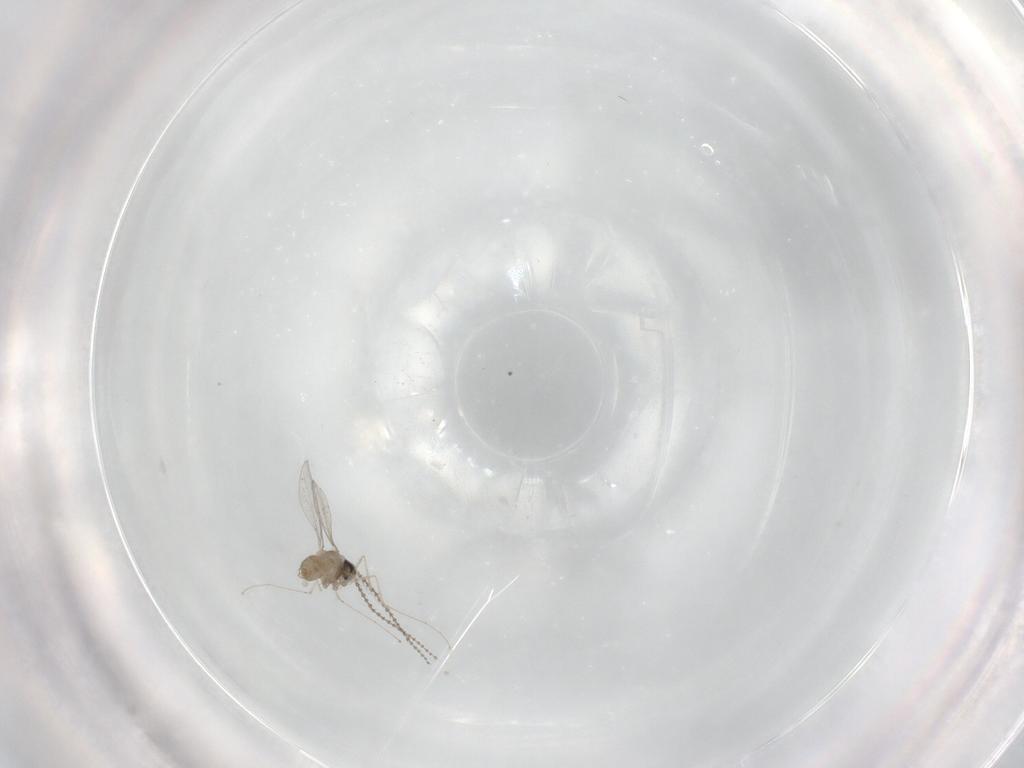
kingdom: Animalia
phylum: Arthropoda
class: Insecta
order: Diptera
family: Phoridae
